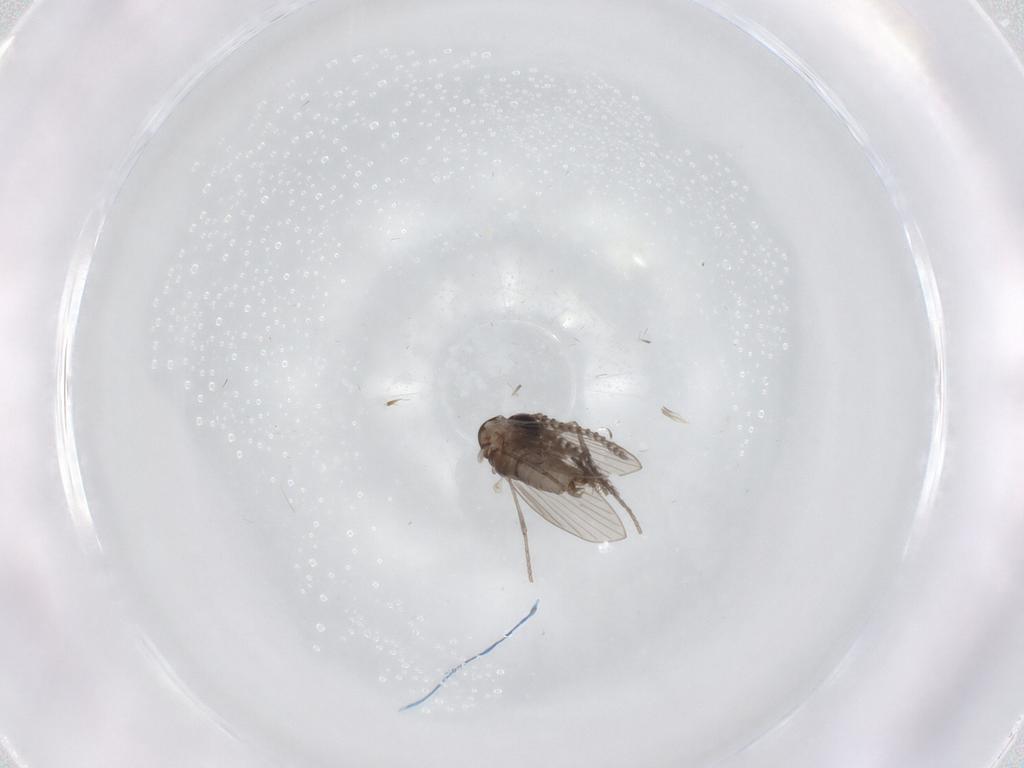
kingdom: Animalia
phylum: Arthropoda
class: Insecta
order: Diptera
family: Psychodidae
